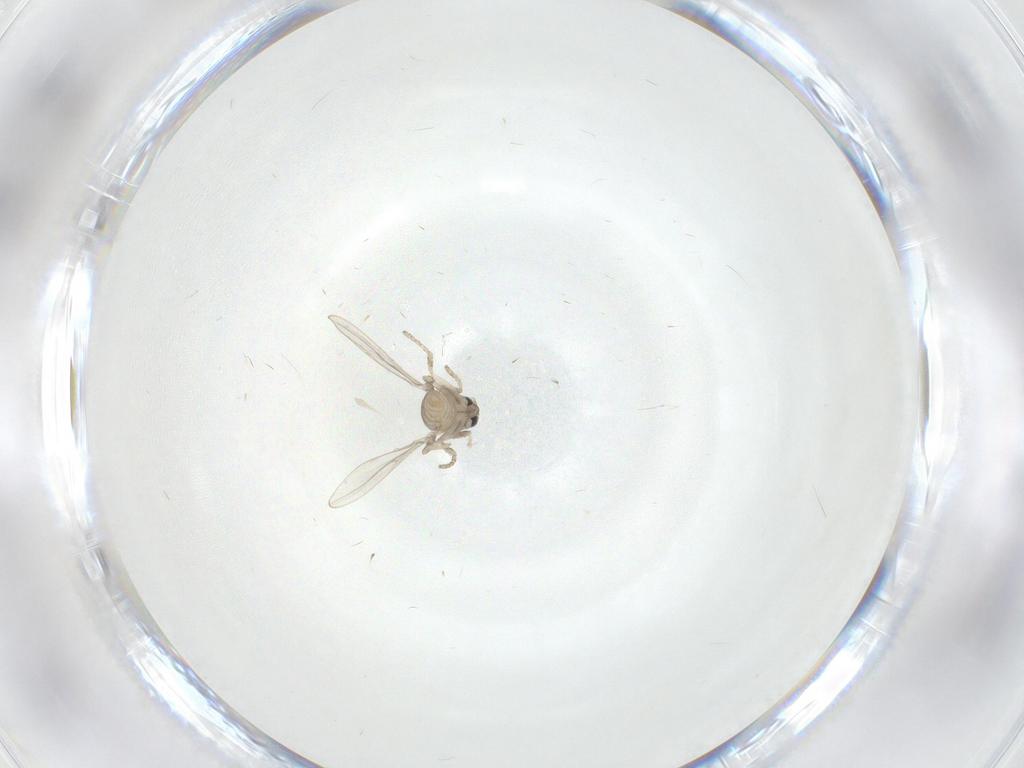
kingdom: Animalia
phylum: Arthropoda
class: Insecta
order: Diptera
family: Cecidomyiidae
